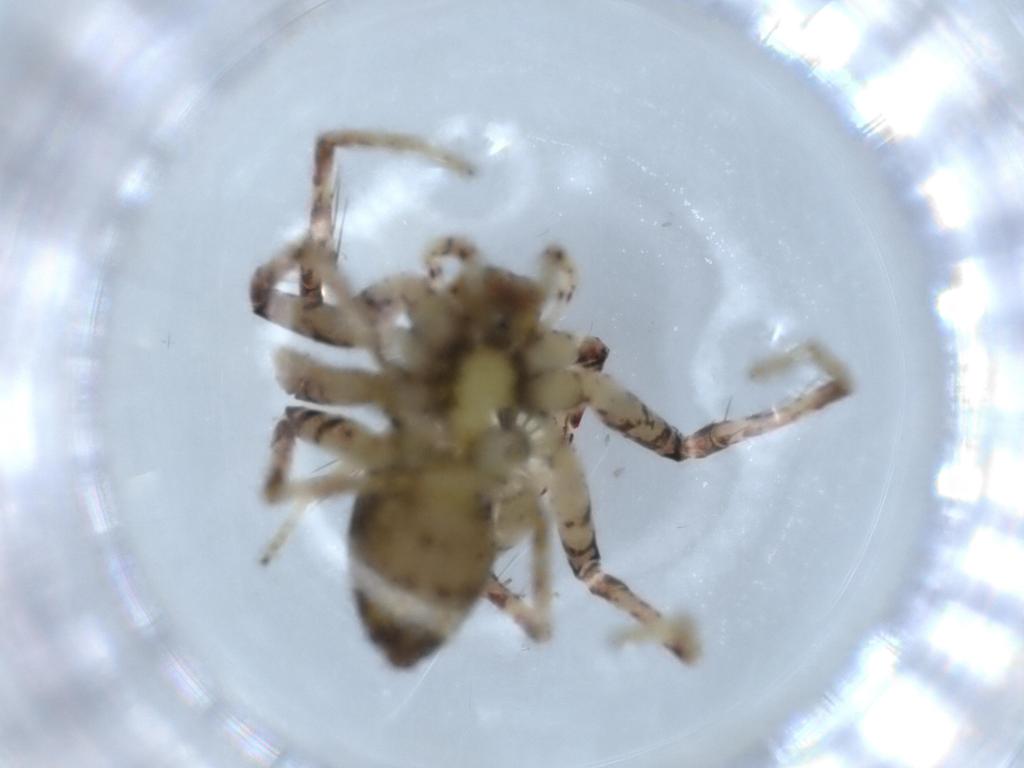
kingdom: Animalia
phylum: Arthropoda
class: Arachnida
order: Araneae
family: Anyphaenidae
